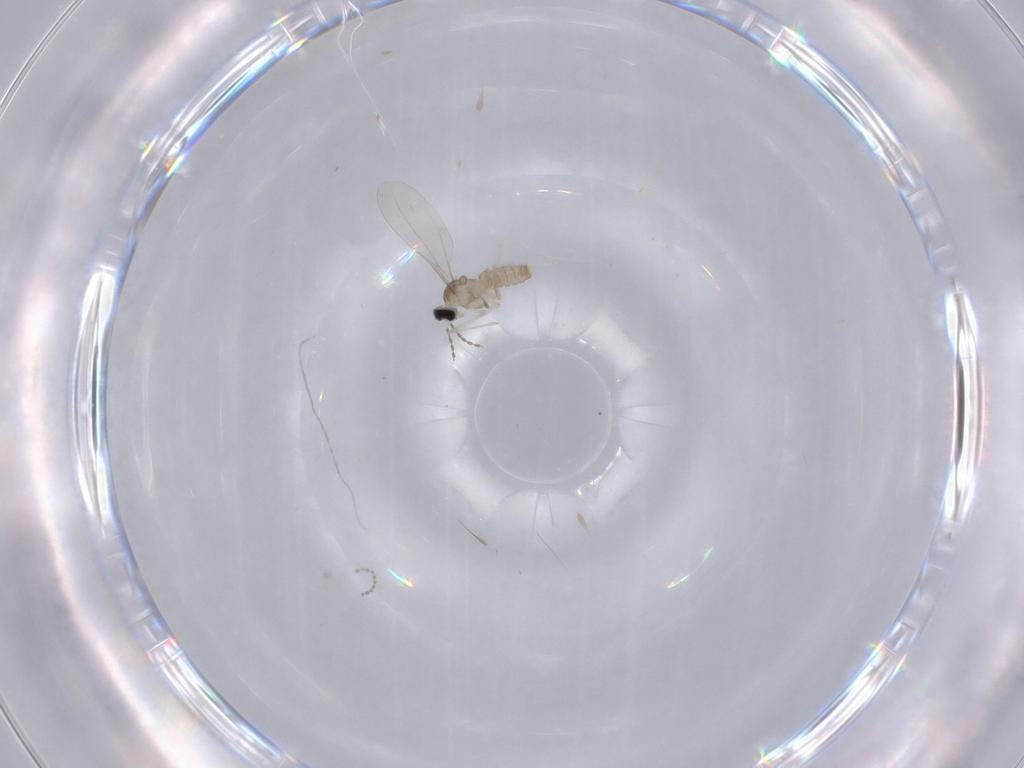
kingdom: Animalia
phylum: Arthropoda
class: Insecta
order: Diptera
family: Cecidomyiidae
